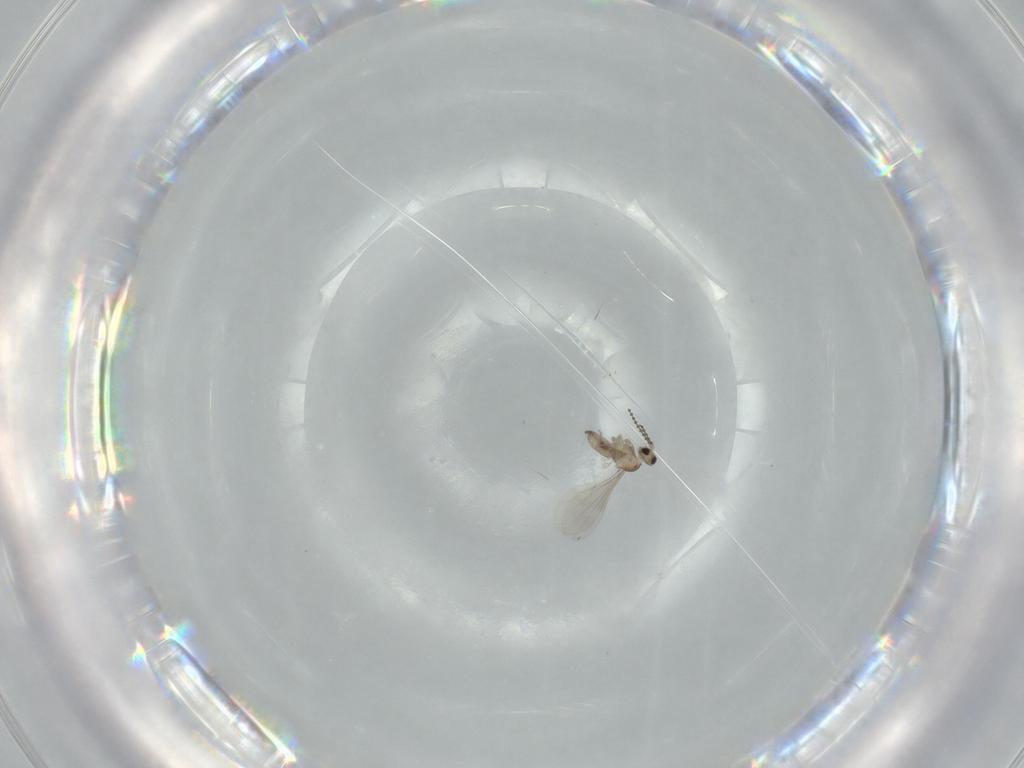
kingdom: Animalia
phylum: Arthropoda
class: Insecta
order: Diptera
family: Cecidomyiidae
